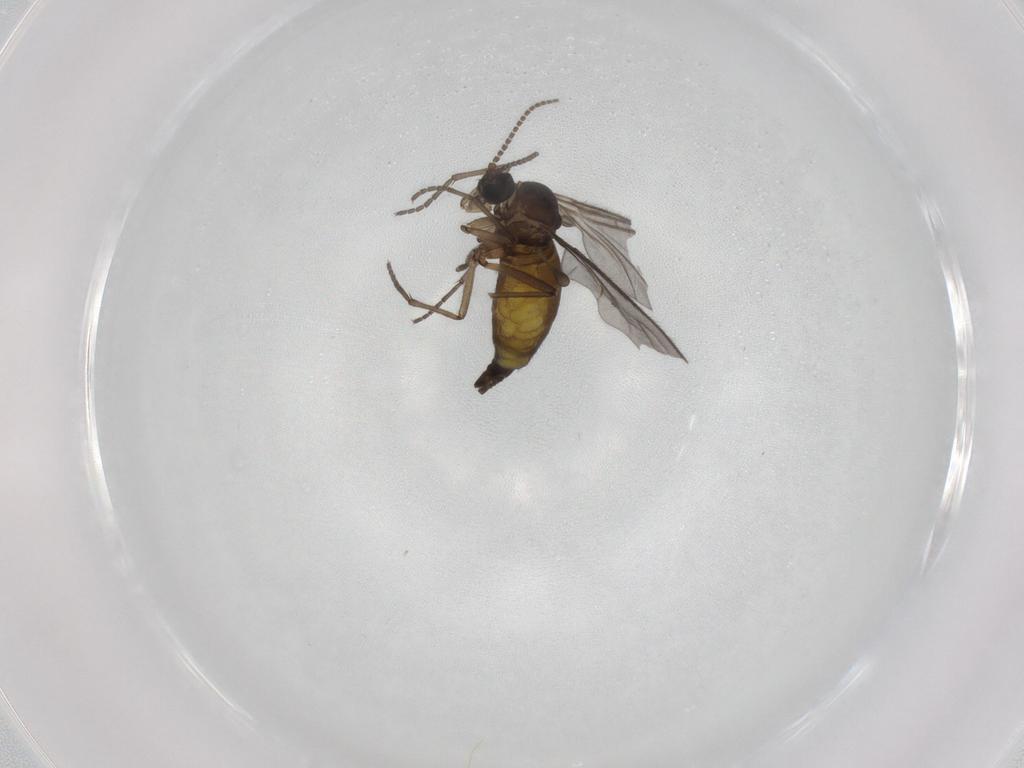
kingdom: Animalia
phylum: Arthropoda
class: Insecta
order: Diptera
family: Sciaridae
